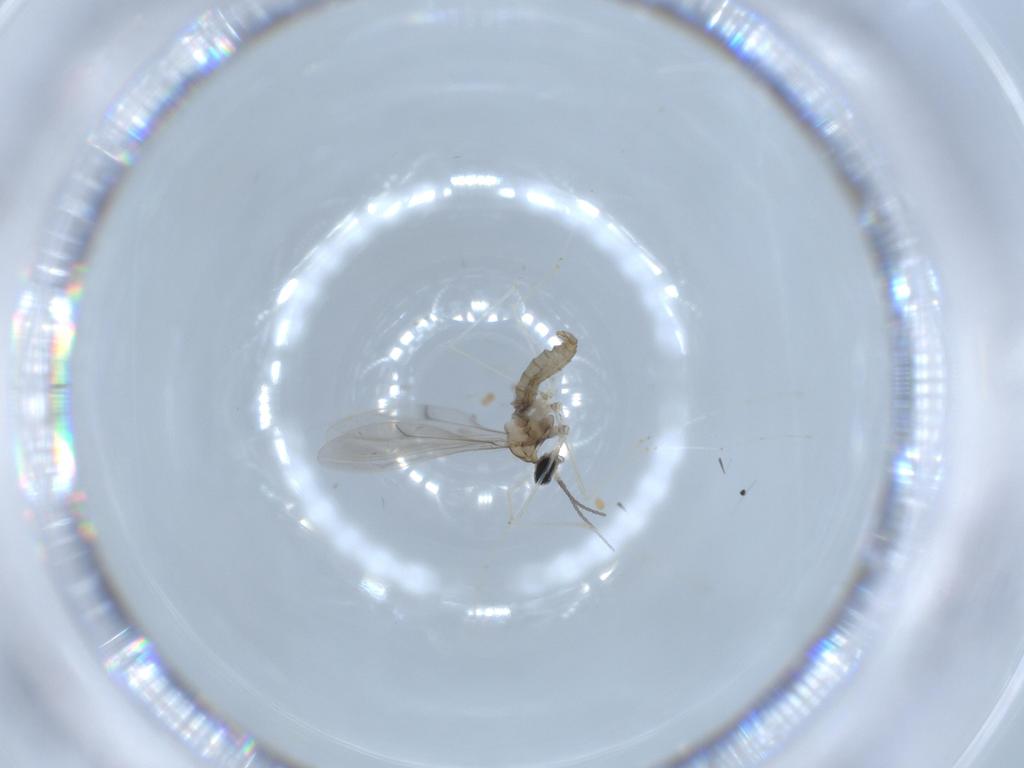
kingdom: Animalia
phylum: Arthropoda
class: Insecta
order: Diptera
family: Cecidomyiidae
